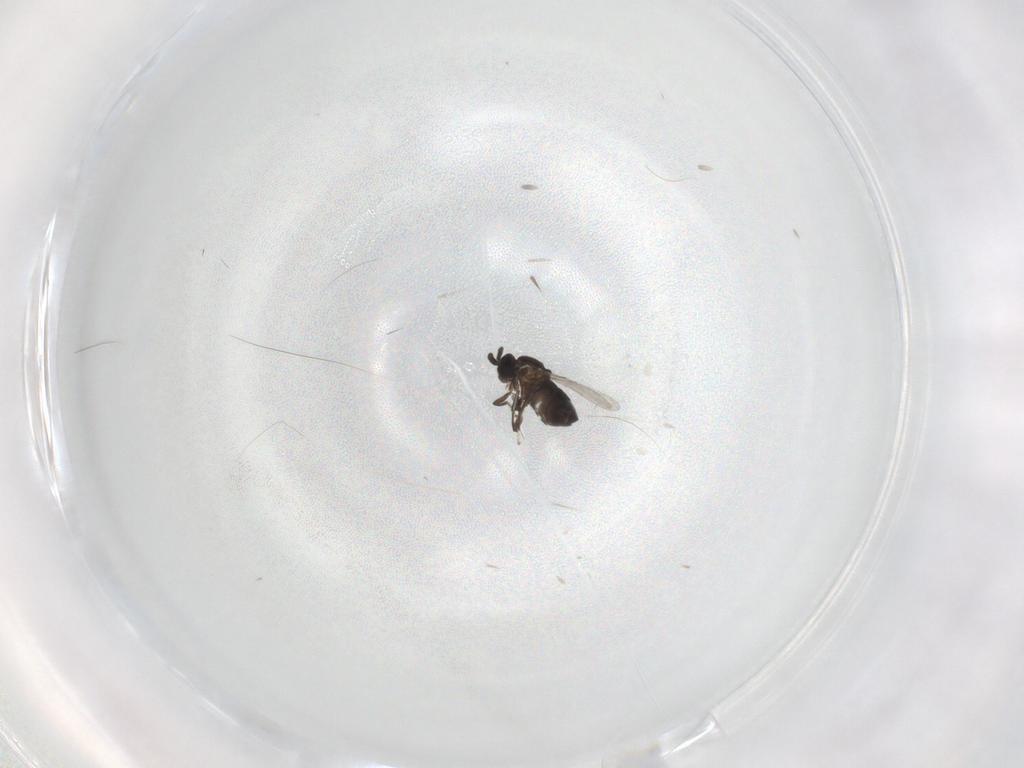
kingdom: Animalia
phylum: Arthropoda
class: Insecta
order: Diptera
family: Scatopsidae
